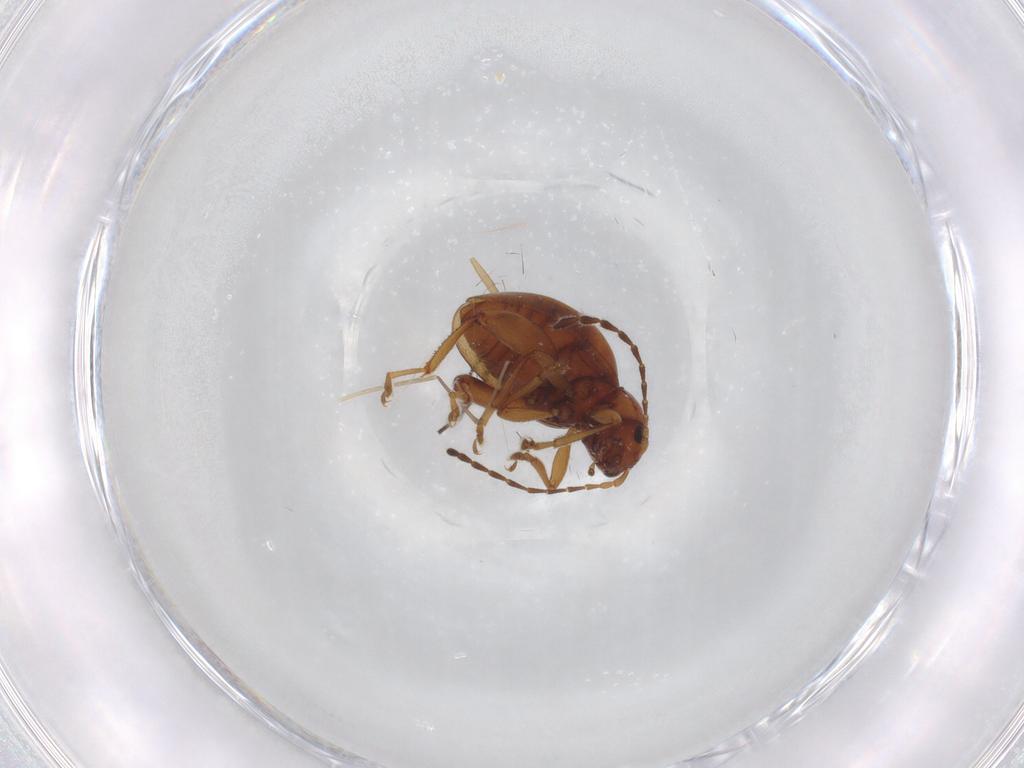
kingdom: Animalia
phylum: Arthropoda
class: Insecta
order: Coleoptera
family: Chrysomelidae
